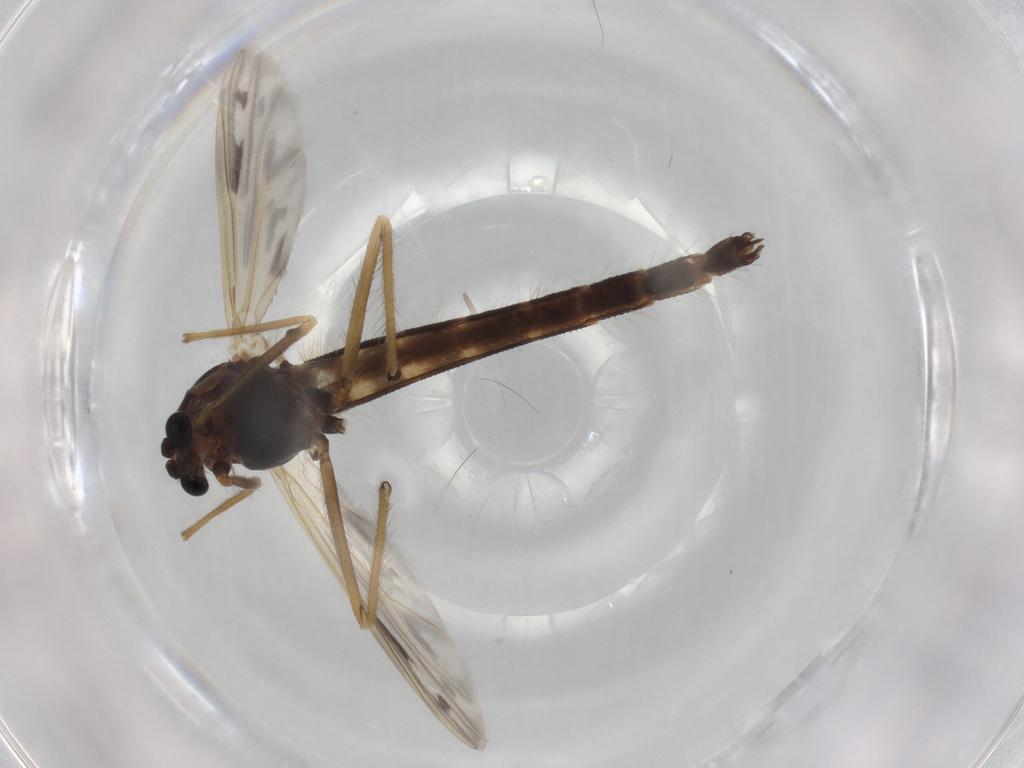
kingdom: Animalia
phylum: Arthropoda
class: Insecta
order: Diptera
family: Chironomidae
